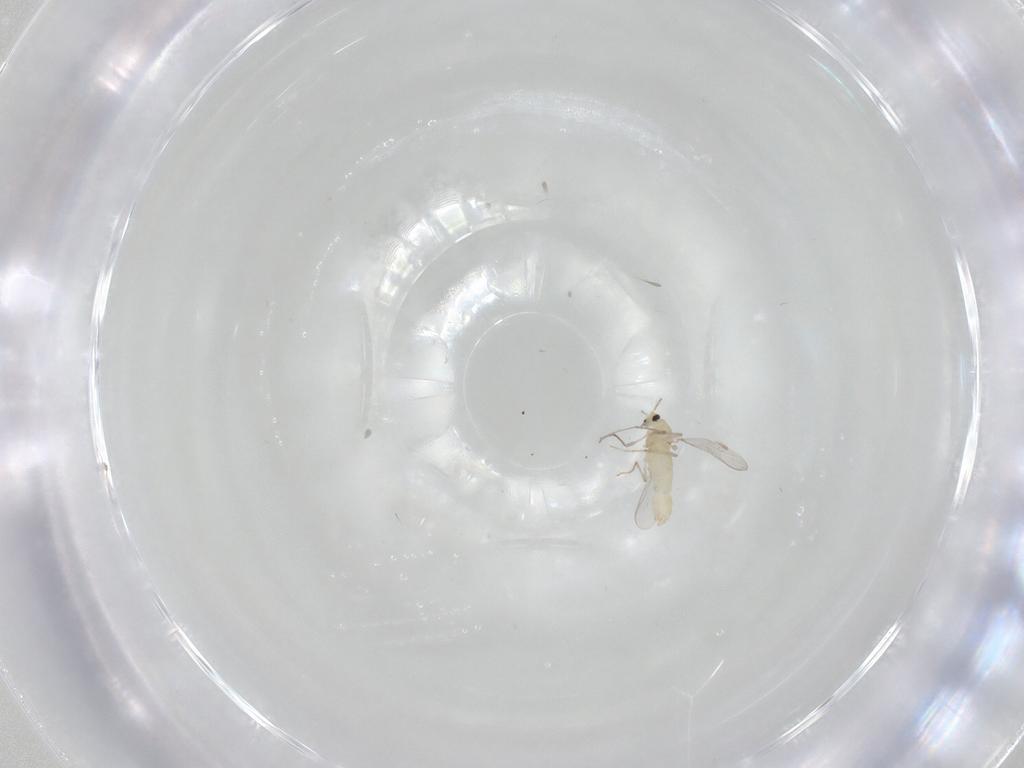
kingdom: Animalia
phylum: Arthropoda
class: Insecta
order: Diptera
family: Chironomidae
